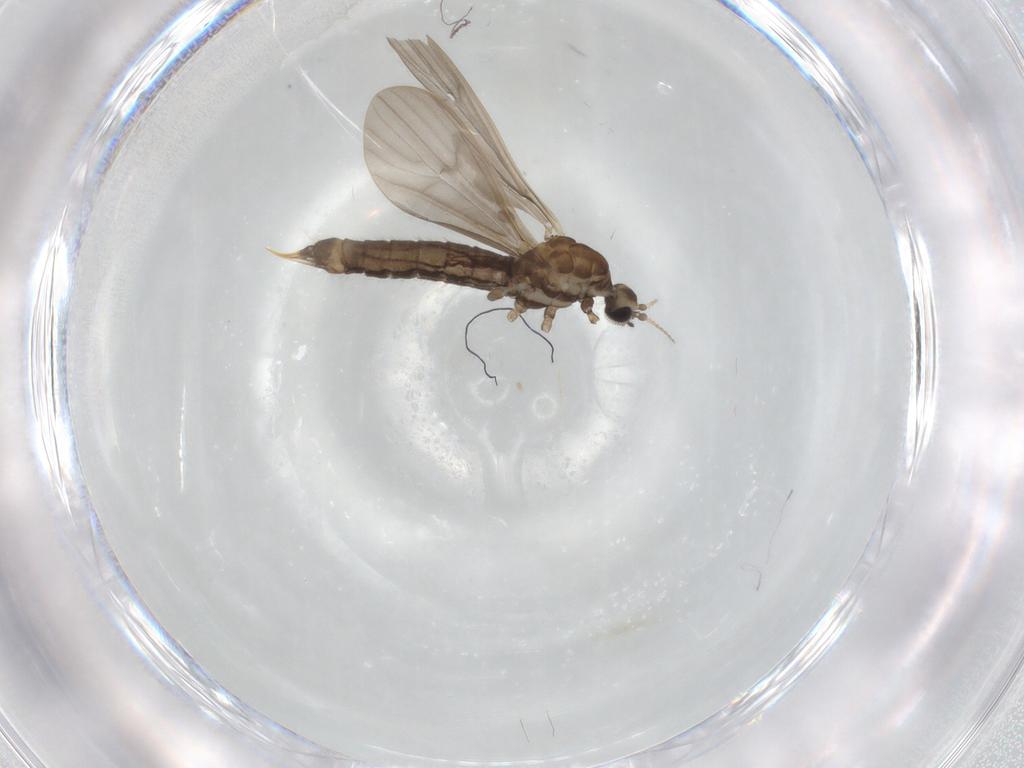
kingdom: Animalia
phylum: Arthropoda
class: Insecta
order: Diptera
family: Limoniidae
